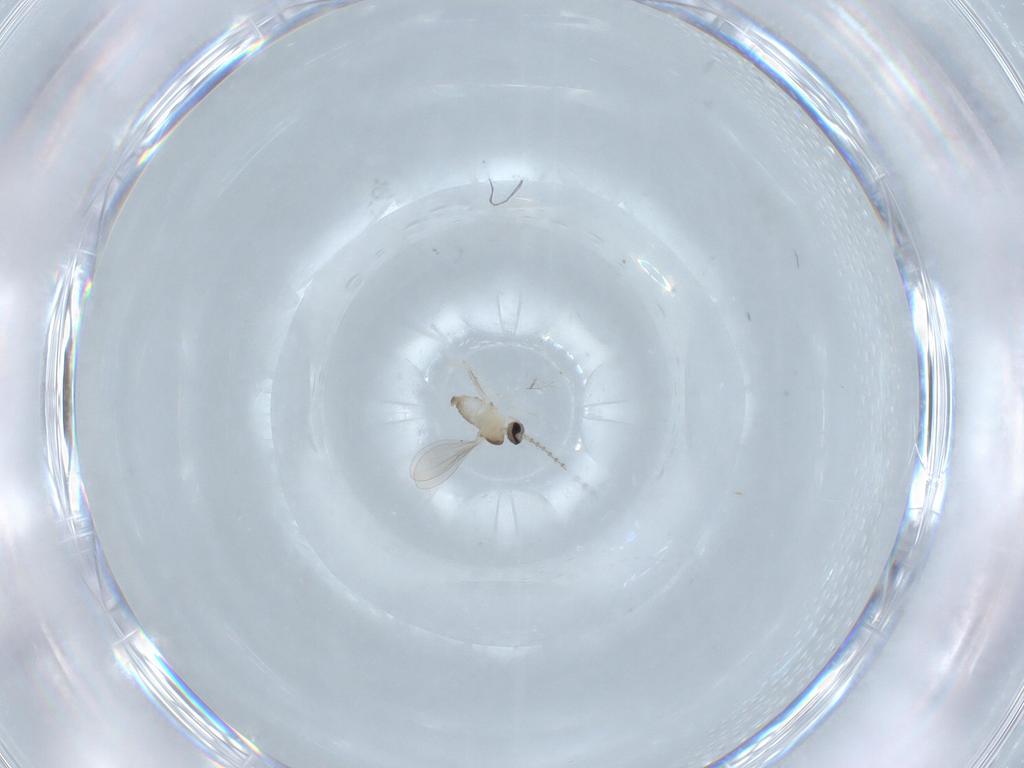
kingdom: Animalia
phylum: Arthropoda
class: Insecta
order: Diptera
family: Cecidomyiidae
